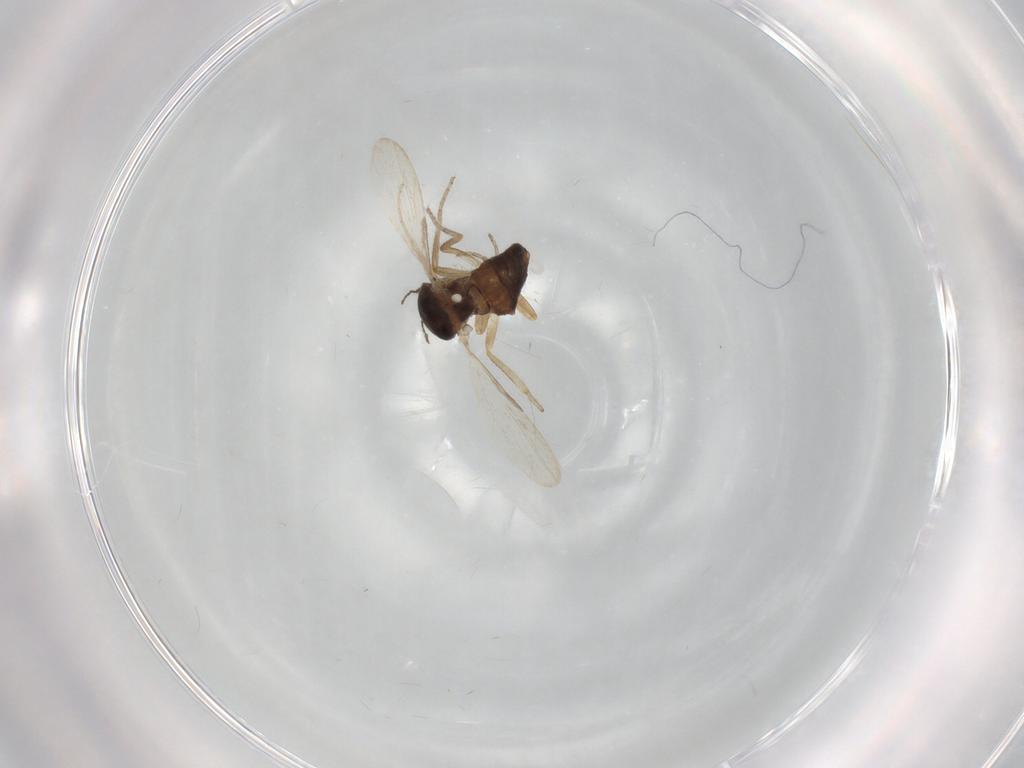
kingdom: Animalia
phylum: Arthropoda
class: Insecta
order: Diptera
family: Ceratopogonidae
